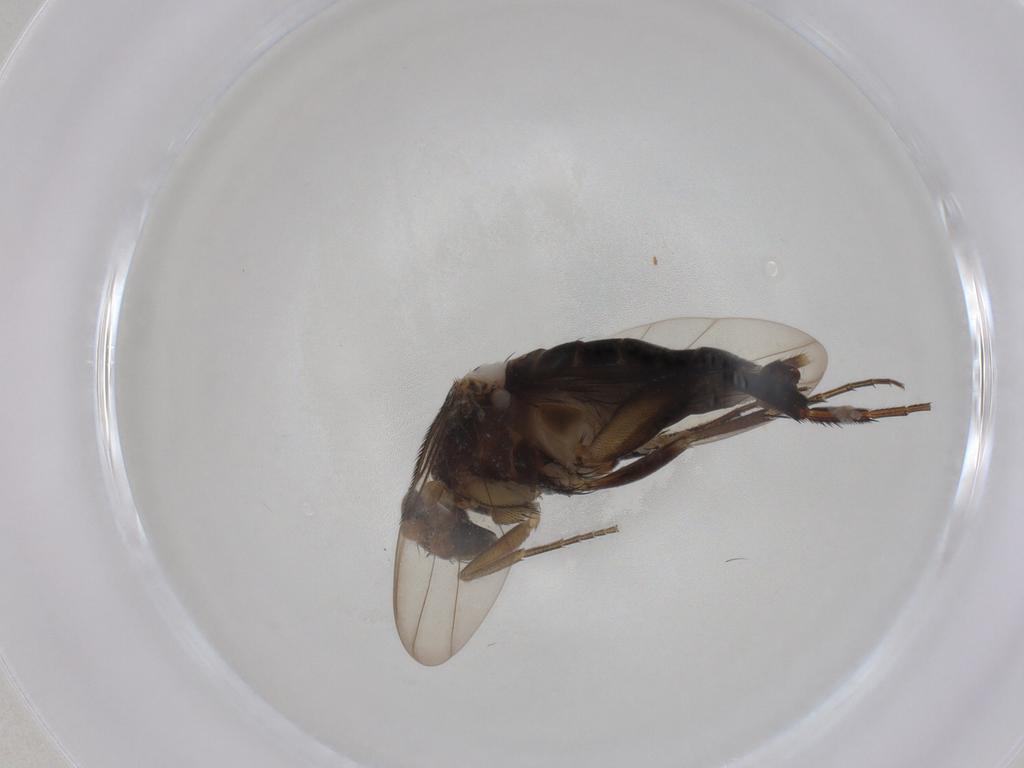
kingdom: Animalia
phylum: Arthropoda
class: Insecta
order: Diptera
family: Phoridae
